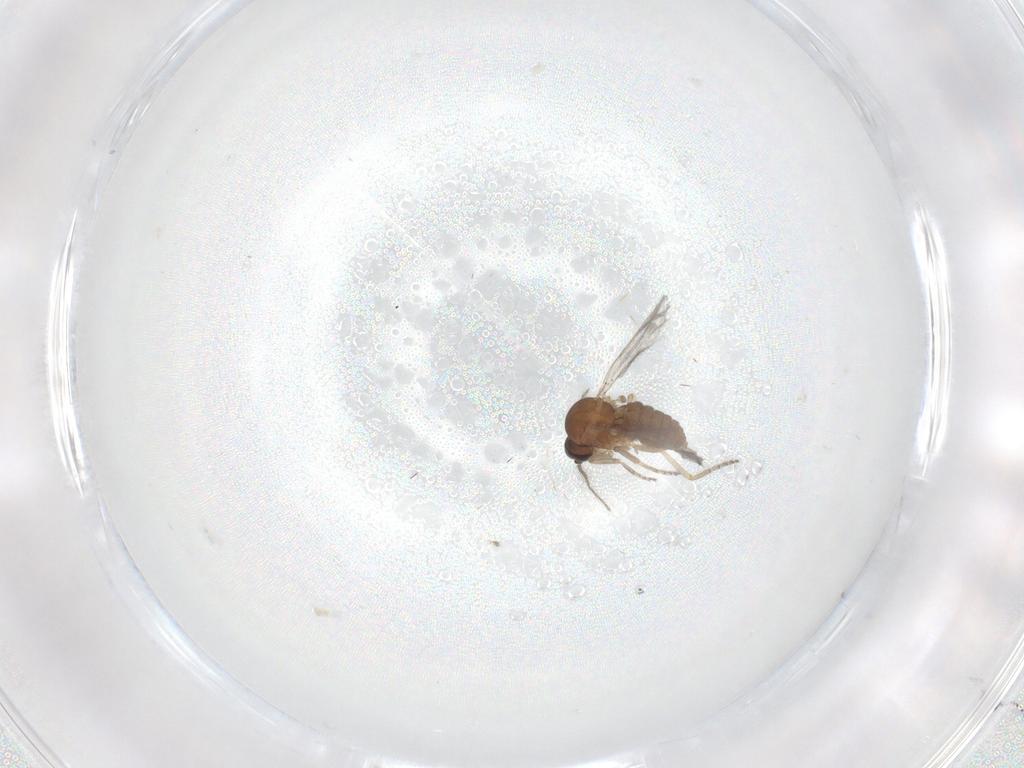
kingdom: Animalia
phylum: Arthropoda
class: Insecta
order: Diptera
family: Ceratopogonidae
